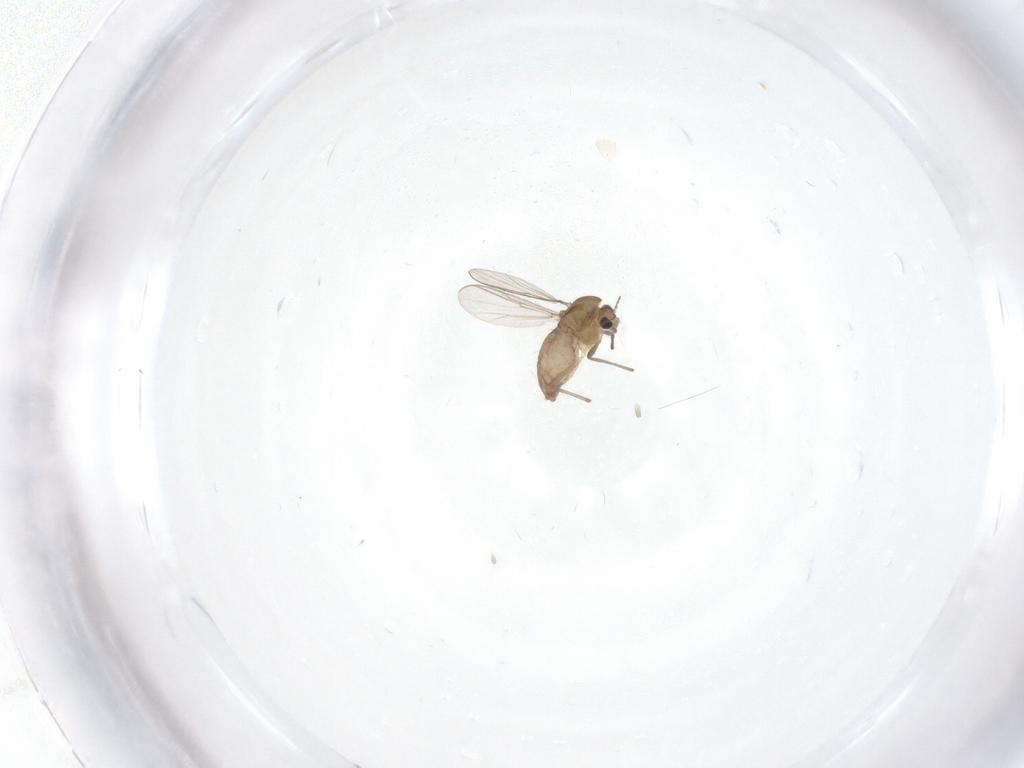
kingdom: Animalia
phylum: Arthropoda
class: Insecta
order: Diptera
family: Chironomidae
